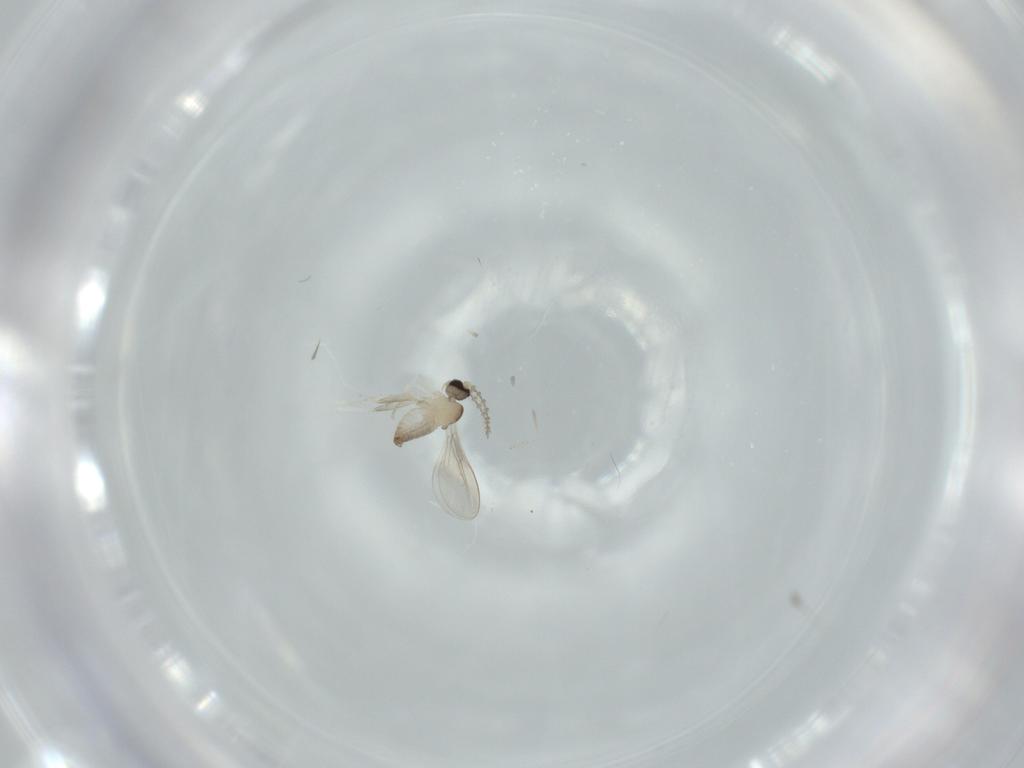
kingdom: Animalia
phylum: Arthropoda
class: Insecta
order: Diptera
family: Cecidomyiidae
